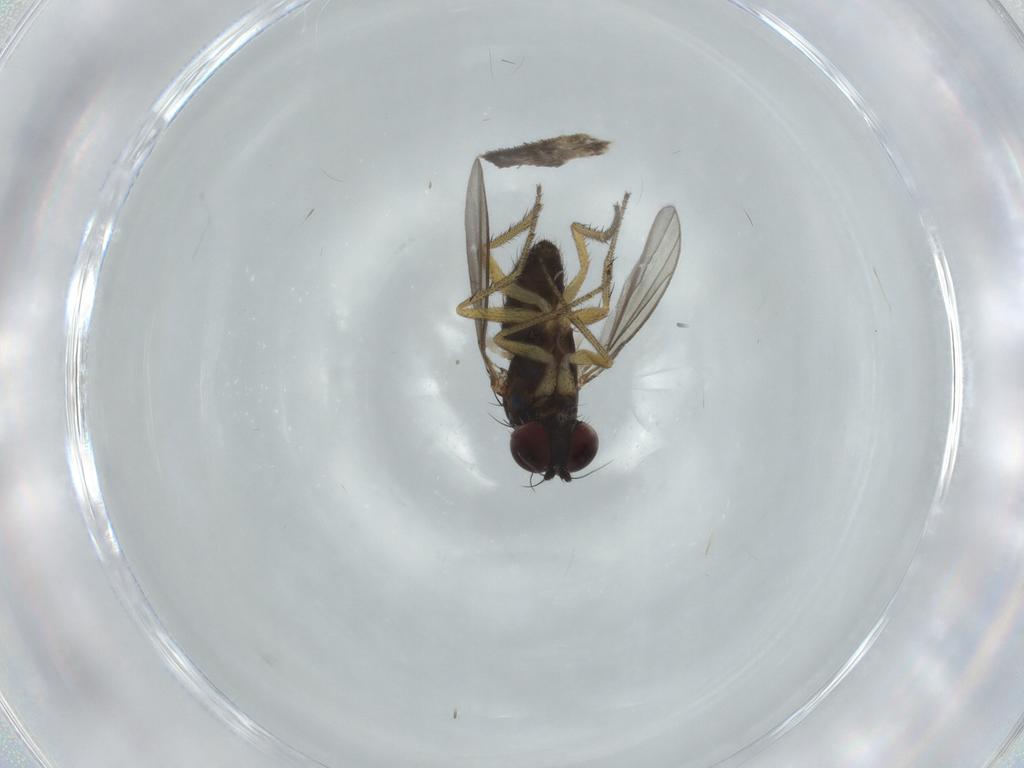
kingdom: Animalia
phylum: Arthropoda
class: Insecta
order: Diptera
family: Dolichopodidae
